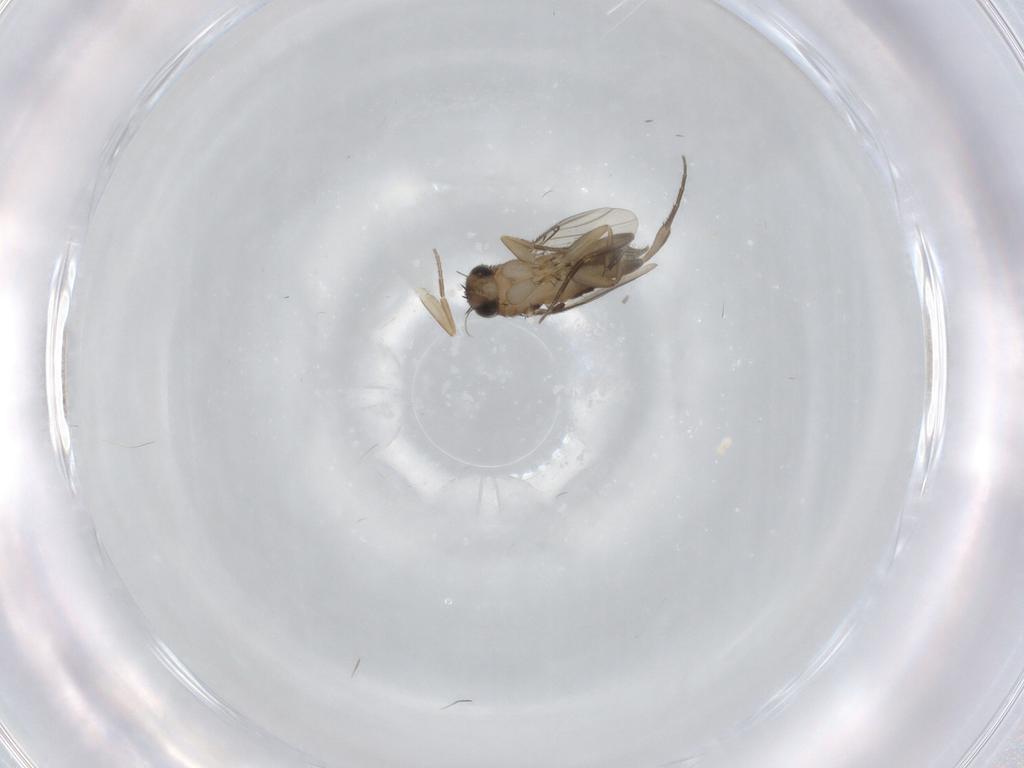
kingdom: Animalia
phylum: Arthropoda
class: Insecta
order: Diptera
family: Phoridae
